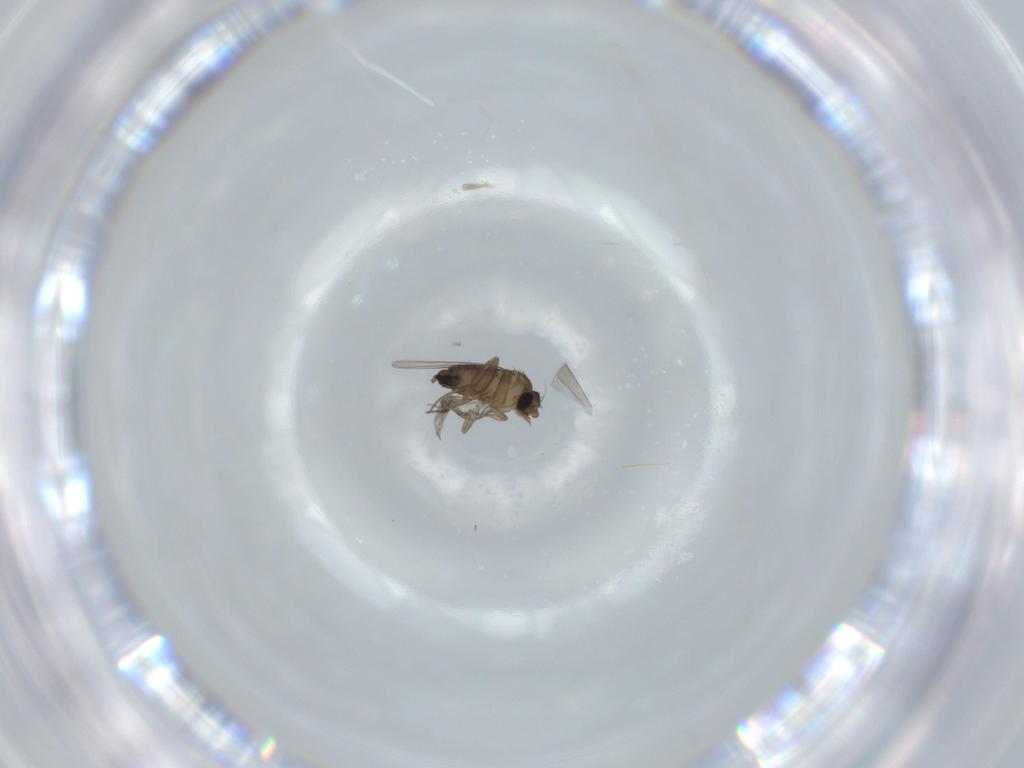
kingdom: Animalia
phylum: Arthropoda
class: Insecta
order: Diptera
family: Phoridae
